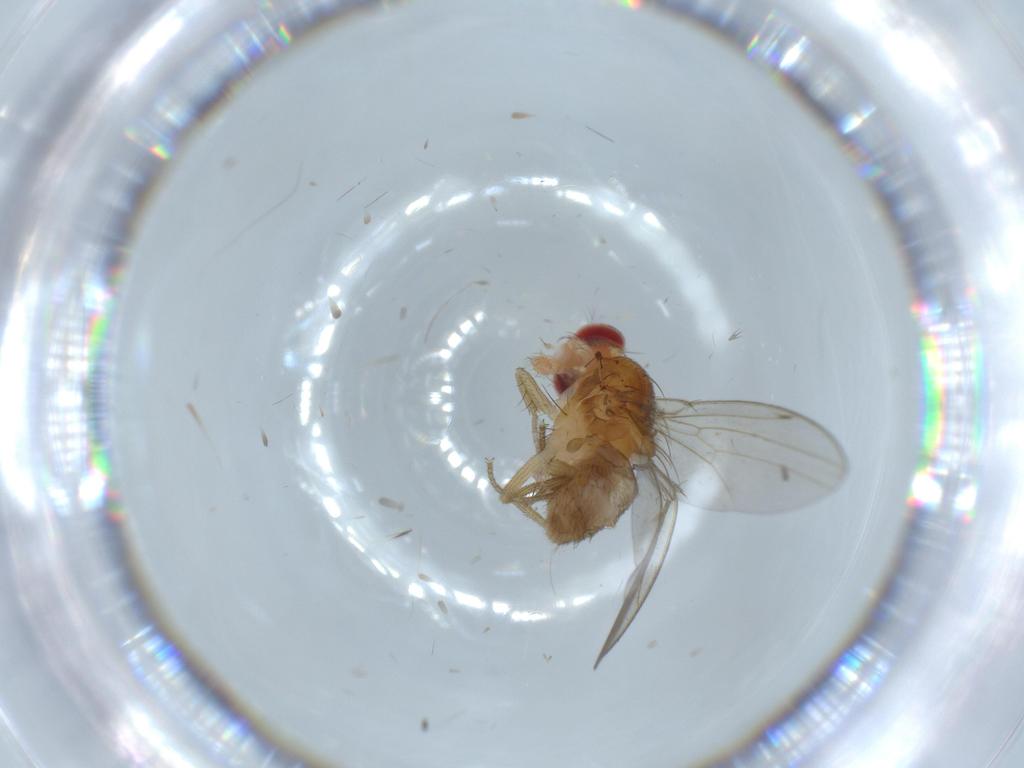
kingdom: Animalia
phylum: Arthropoda
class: Insecta
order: Diptera
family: Drosophilidae
